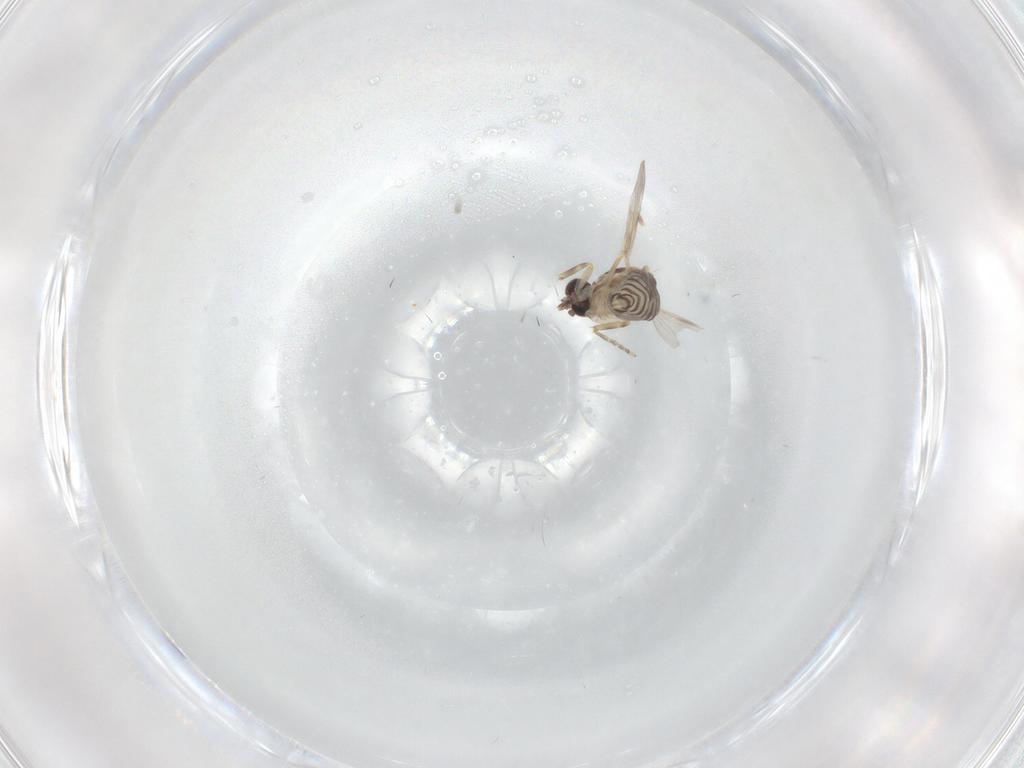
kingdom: Animalia
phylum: Arthropoda
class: Insecta
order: Diptera
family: Ceratopogonidae
